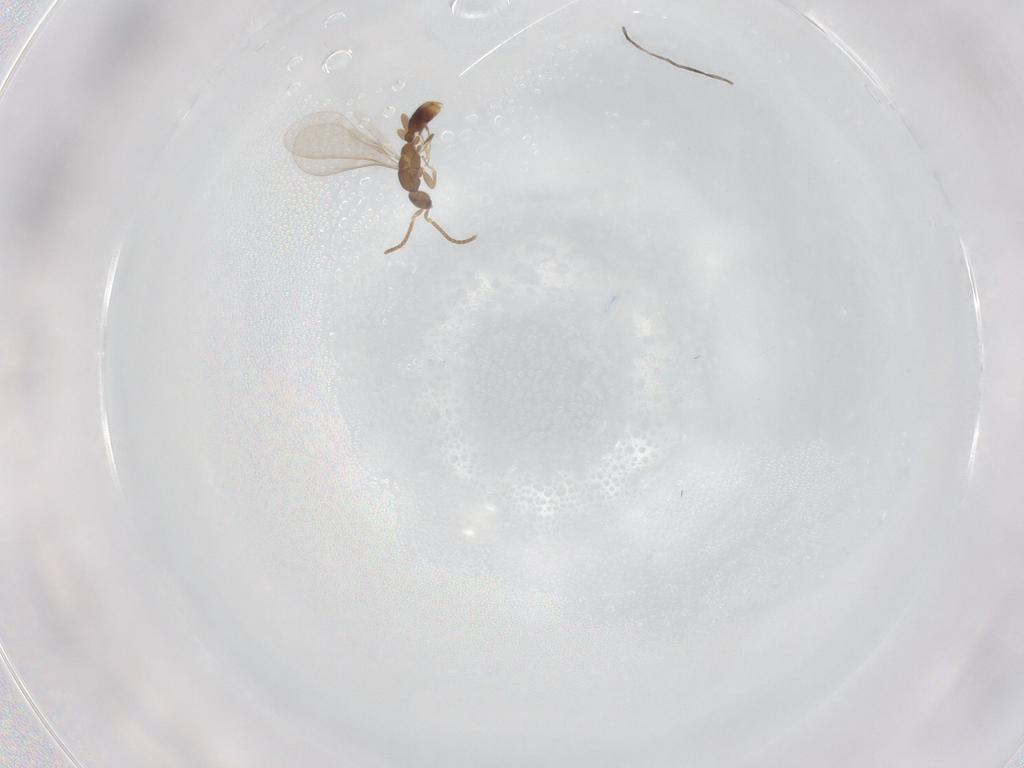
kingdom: Animalia
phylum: Arthropoda
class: Insecta
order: Hymenoptera
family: Formicidae
